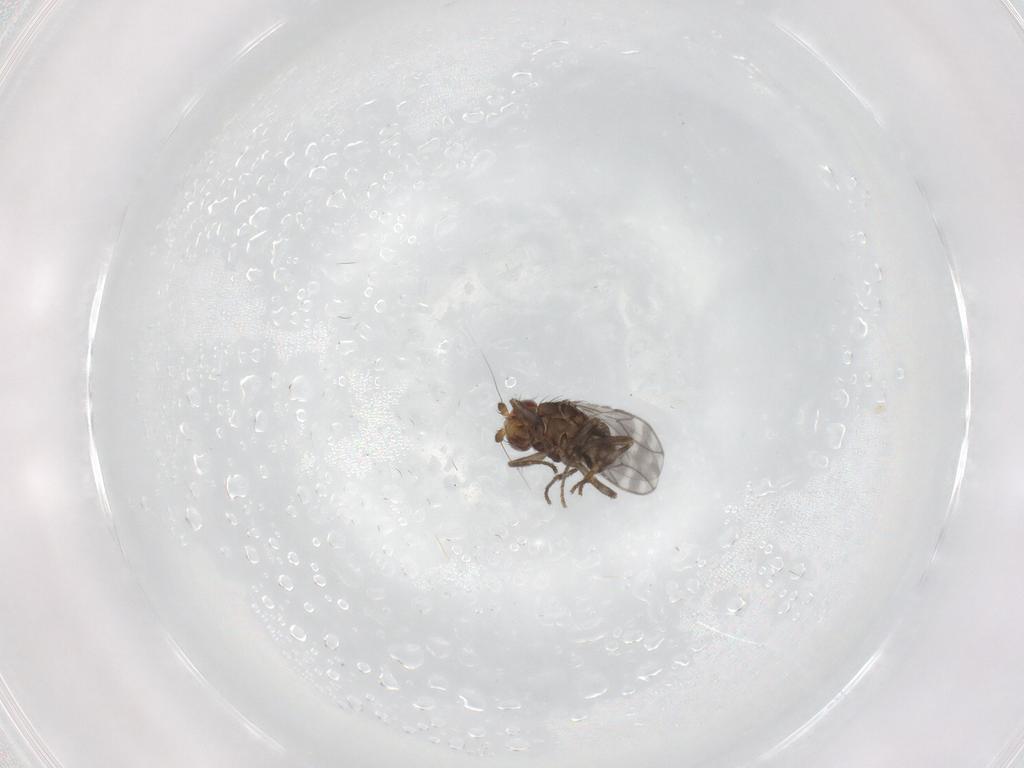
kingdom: Animalia
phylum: Arthropoda
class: Insecta
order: Diptera
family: Sphaeroceridae
